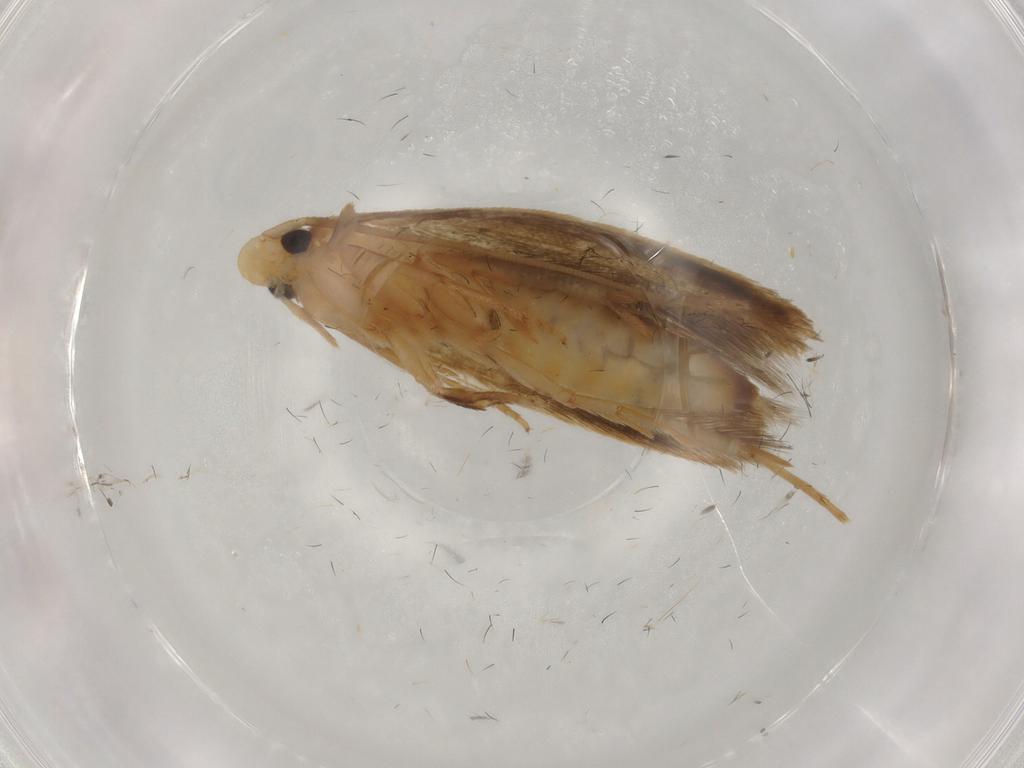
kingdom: Animalia
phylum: Arthropoda
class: Insecta
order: Lepidoptera
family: Tineidae
